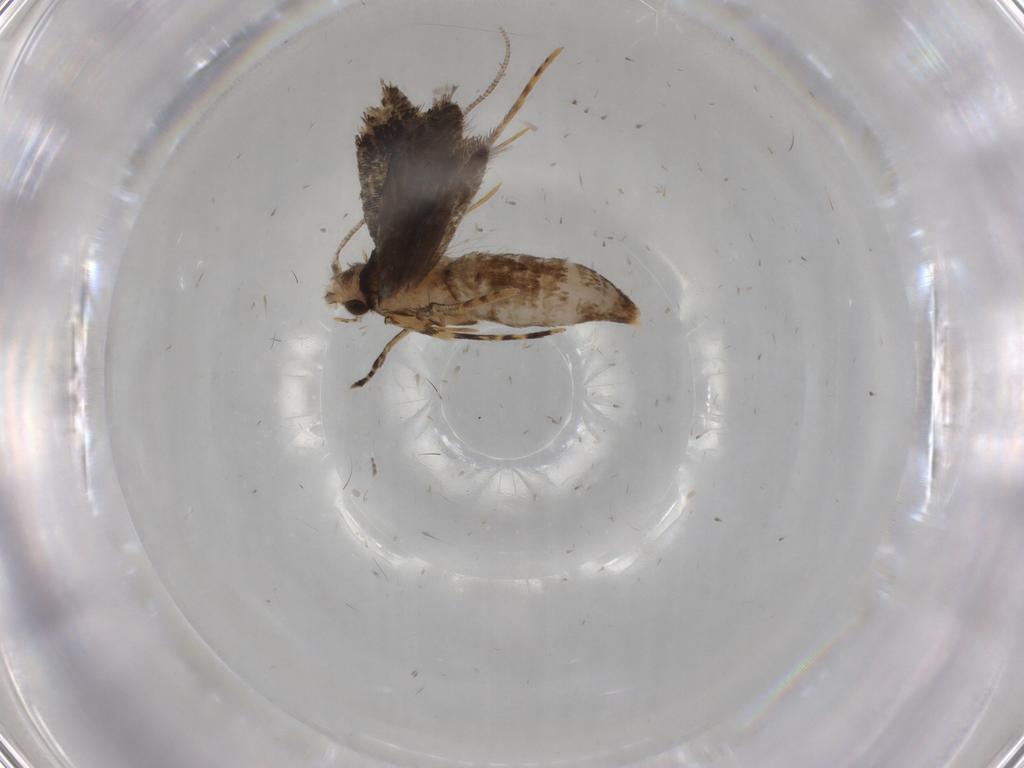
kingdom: Animalia
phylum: Arthropoda
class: Insecta
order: Lepidoptera
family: Meessiidae
